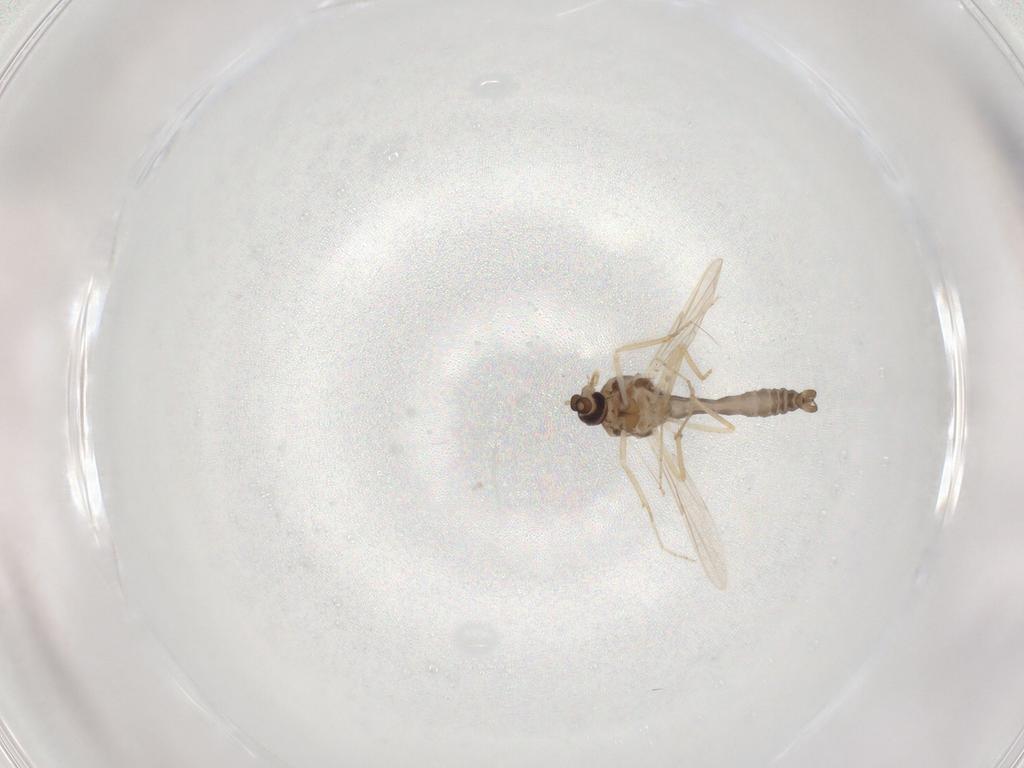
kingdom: Animalia
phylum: Arthropoda
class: Insecta
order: Diptera
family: Ceratopogonidae
